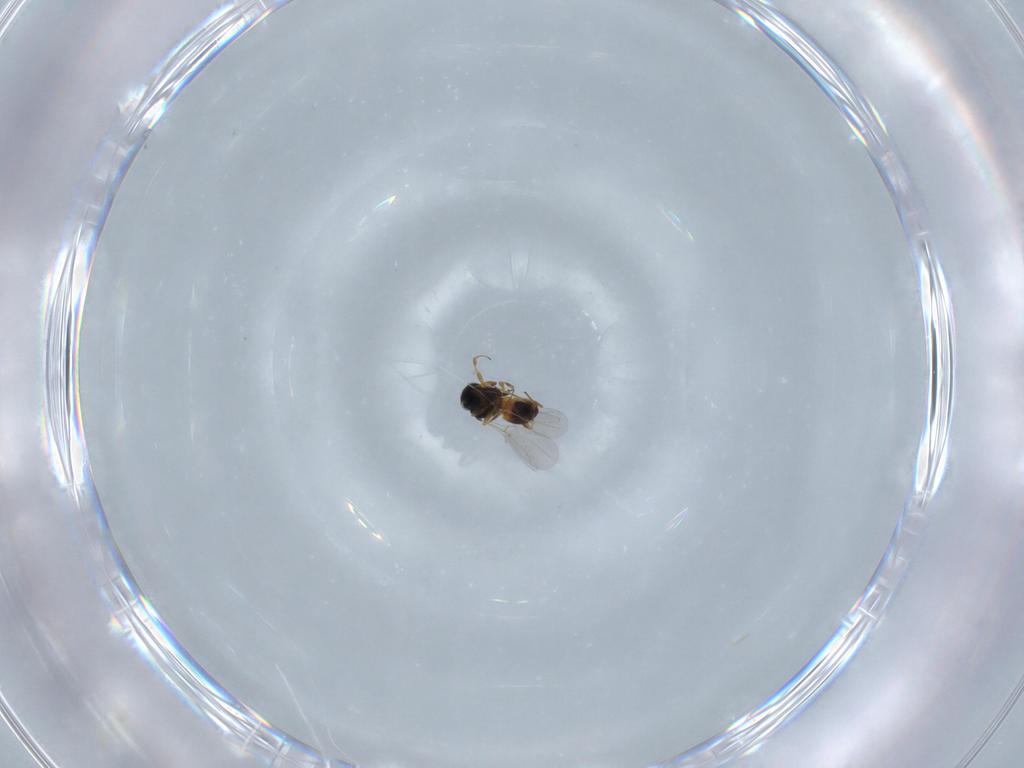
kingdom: Animalia
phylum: Arthropoda
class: Insecta
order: Hymenoptera
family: Platygastridae
